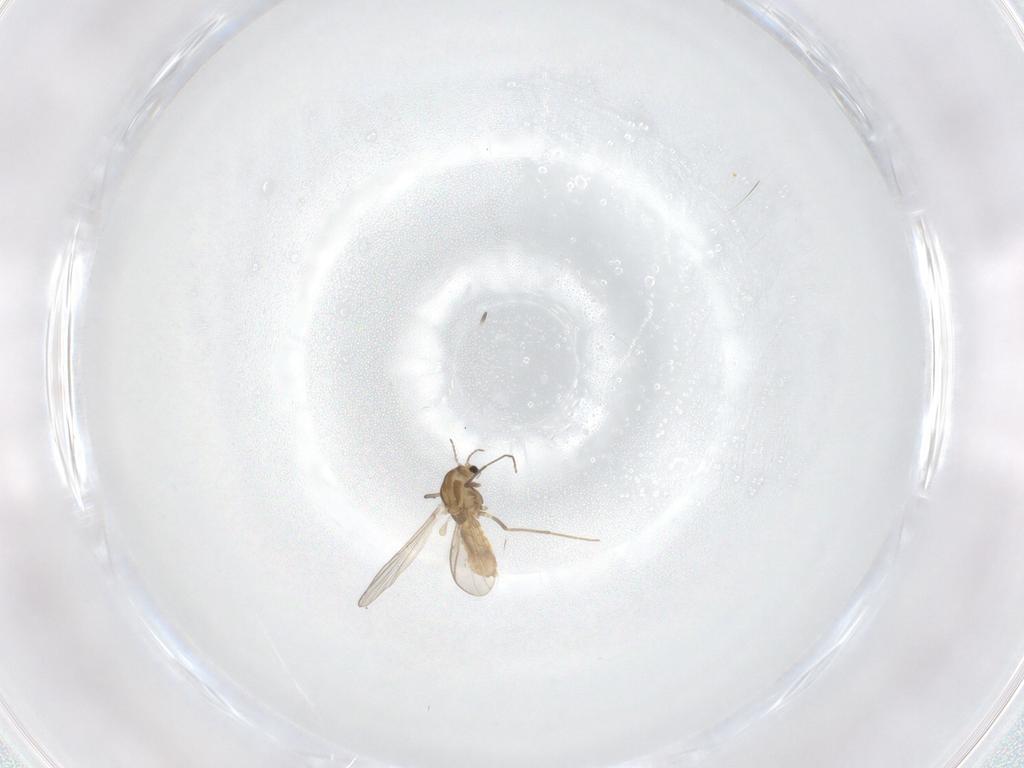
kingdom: Animalia
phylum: Arthropoda
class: Insecta
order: Diptera
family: Chironomidae
